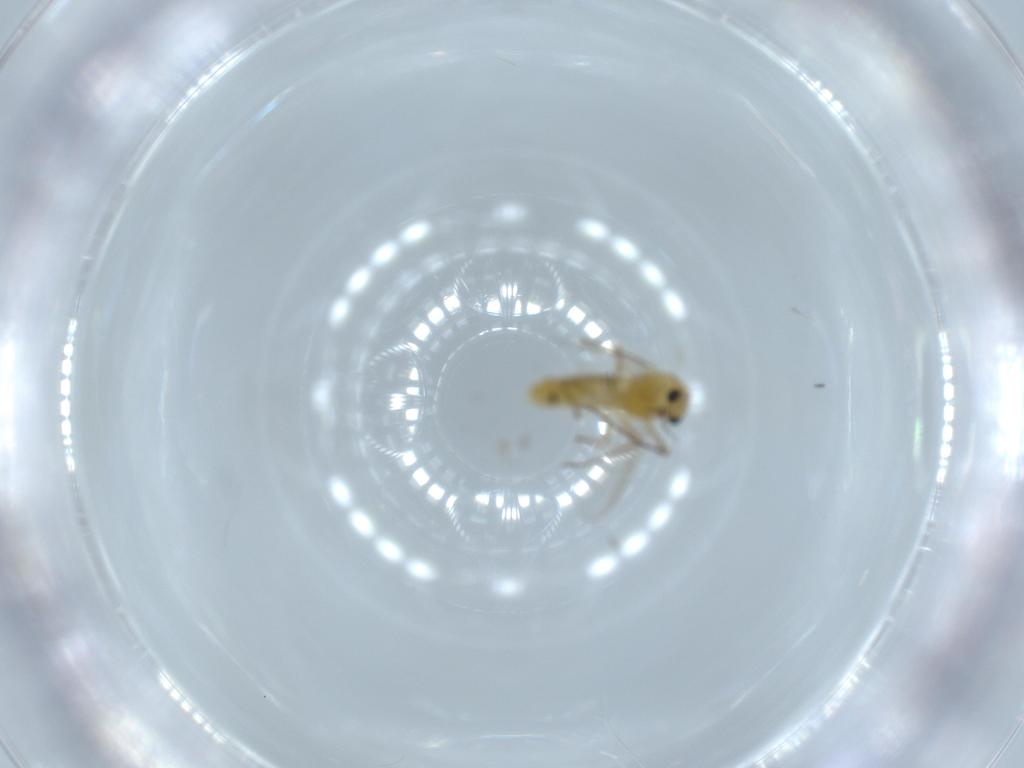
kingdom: Animalia
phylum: Arthropoda
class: Insecta
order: Diptera
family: Chironomidae
